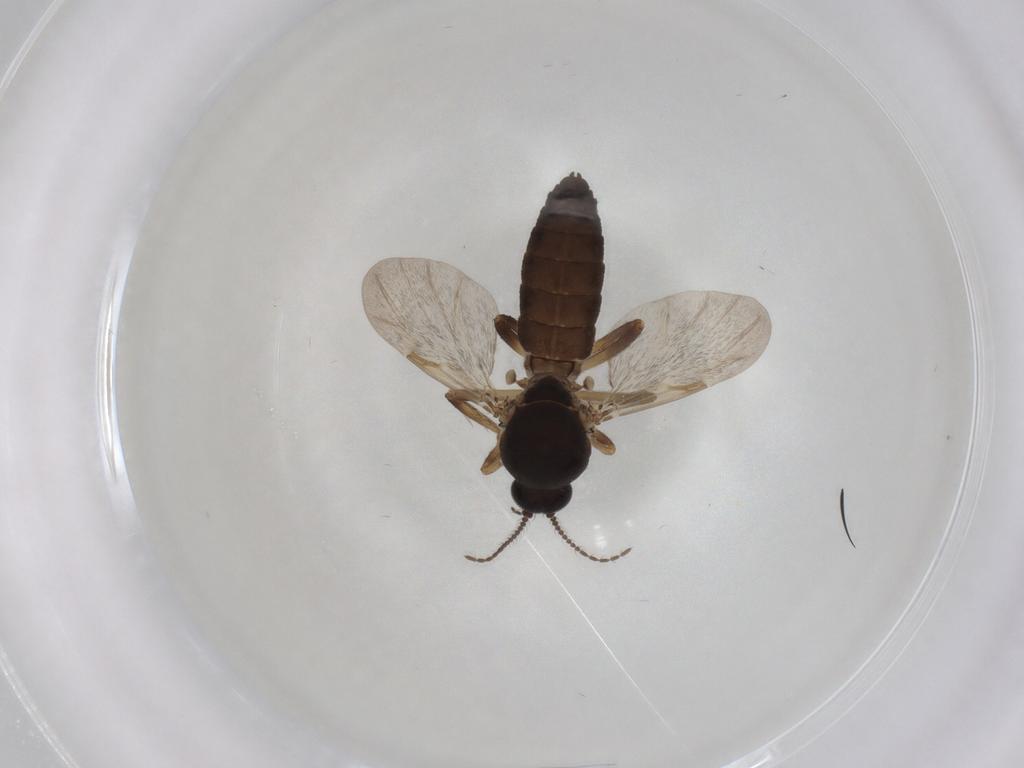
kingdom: Animalia
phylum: Arthropoda
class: Insecta
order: Diptera
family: Ceratopogonidae
